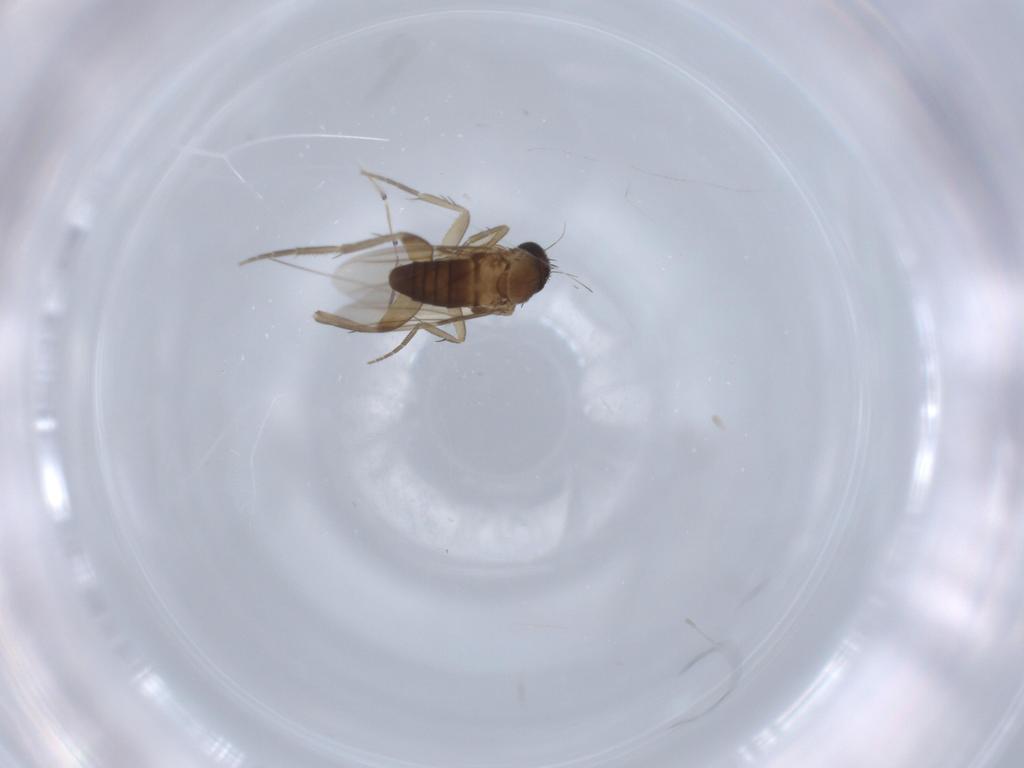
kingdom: Animalia
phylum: Arthropoda
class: Insecta
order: Diptera
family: Phoridae
